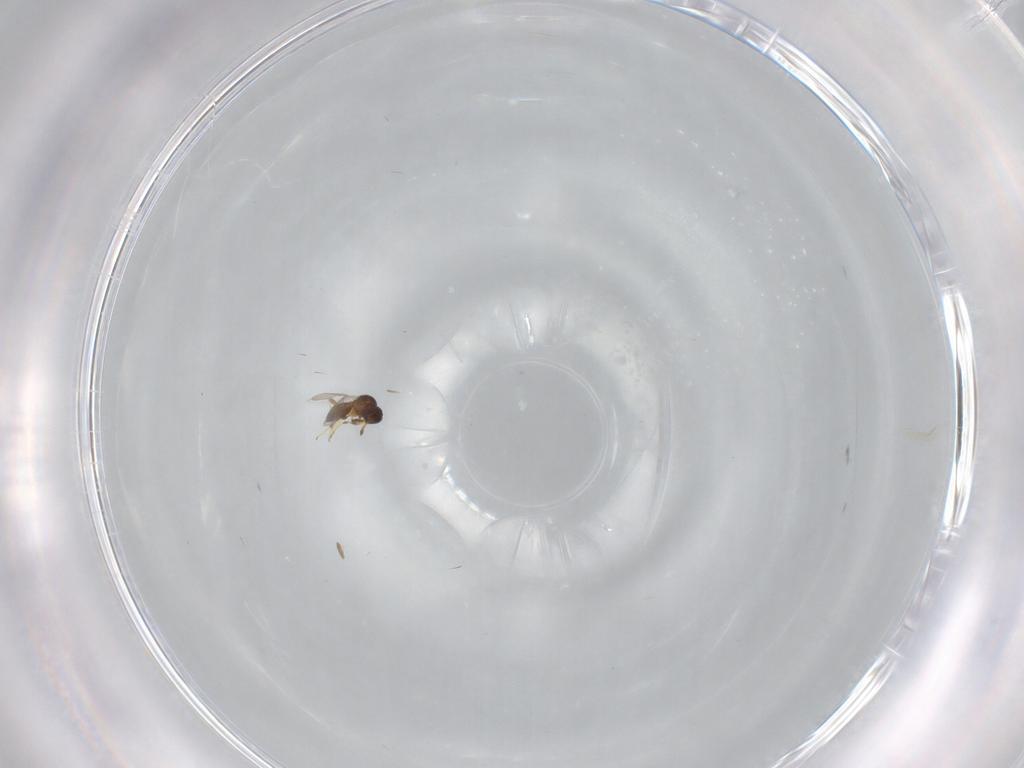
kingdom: Animalia
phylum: Arthropoda
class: Insecta
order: Hymenoptera
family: Platygastridae
